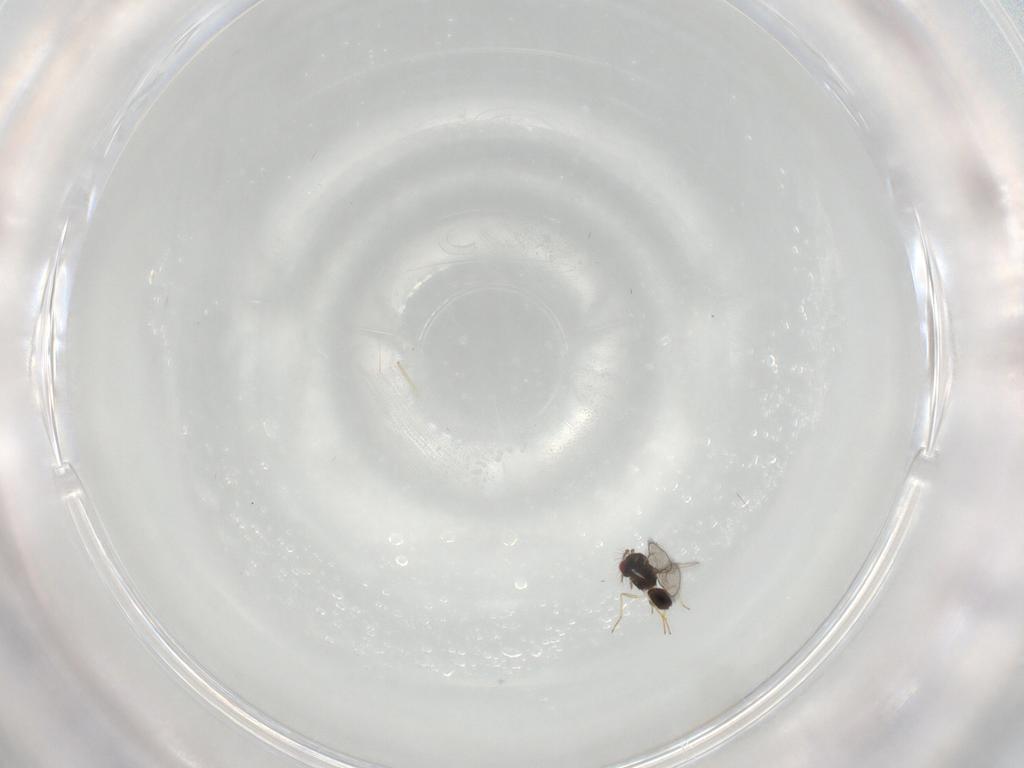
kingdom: Animalia
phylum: Arthropoda
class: Insecta
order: Hymenoptera
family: Eulophidae
